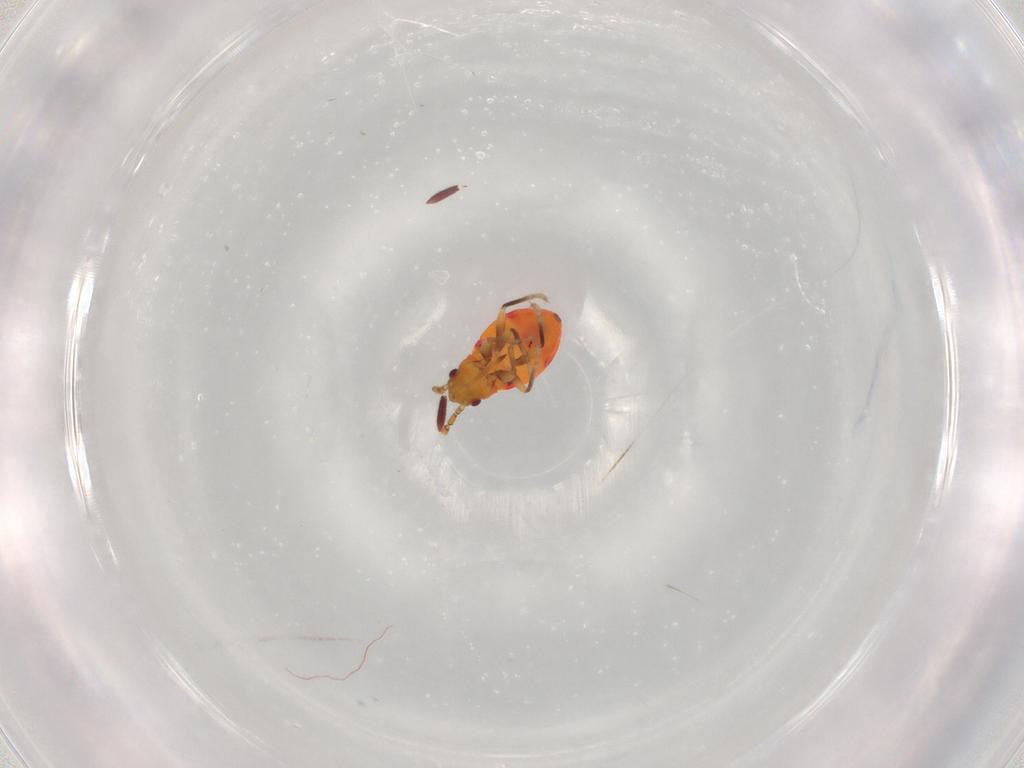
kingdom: Animalia
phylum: Arthropoda
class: Insecta
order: Hemiptera
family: Rhyparochromidae
